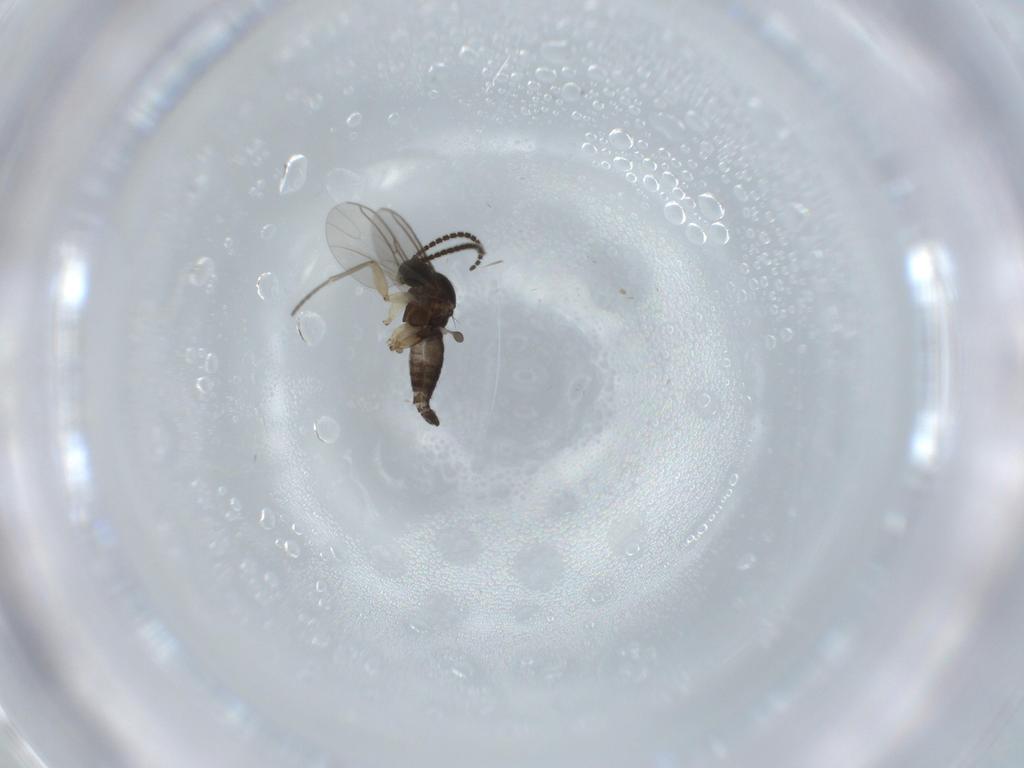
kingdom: Animalia
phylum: Arthropoda
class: Insecta
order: Diptera
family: Sciaridae
